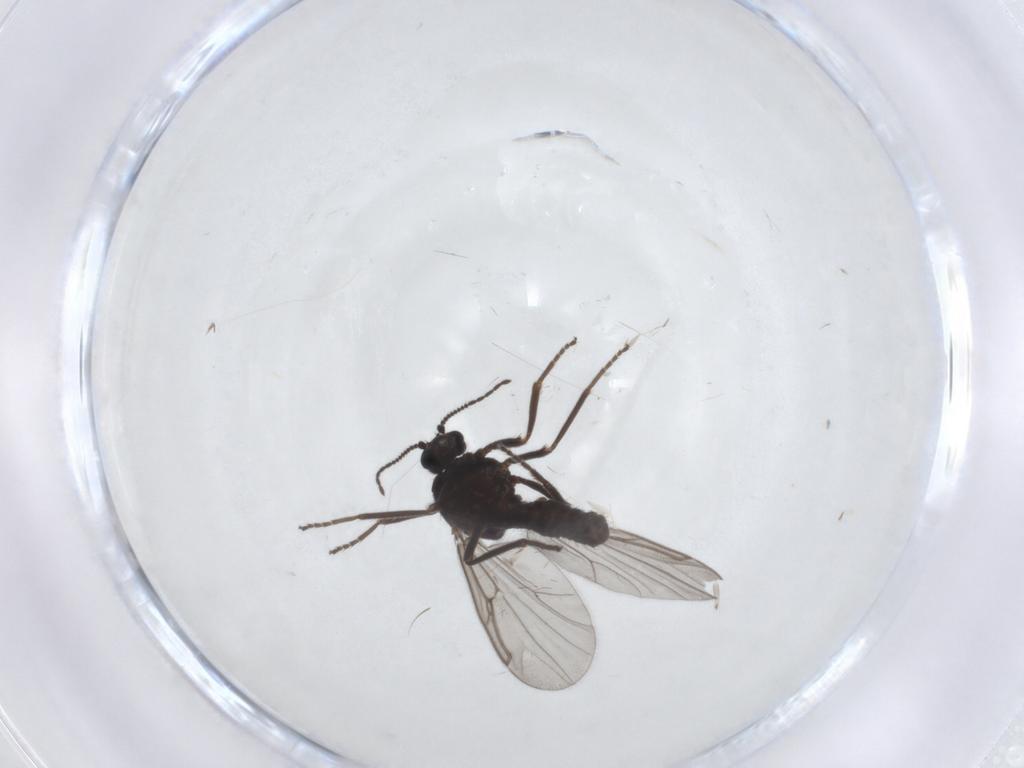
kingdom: Animalia
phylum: Arthropoda
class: Insecta
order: Diptera
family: Ceratopogonidae
